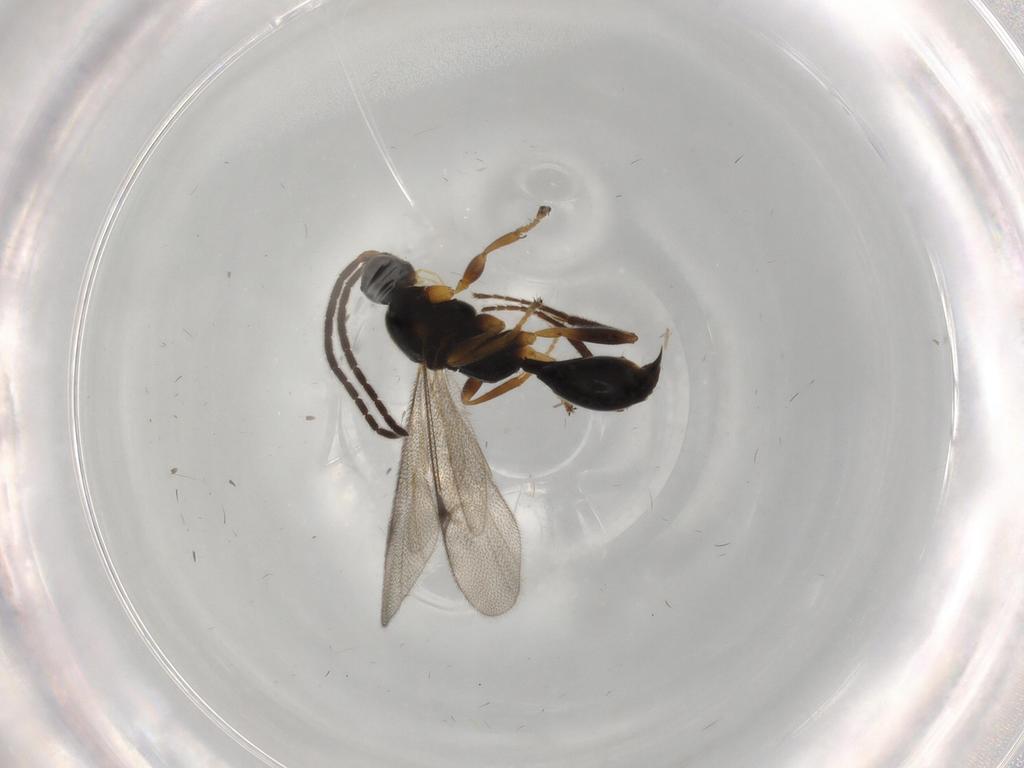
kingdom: Animalia
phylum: Arthropoda
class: Insecta
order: Hymenoptera
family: Proctotrupidae
